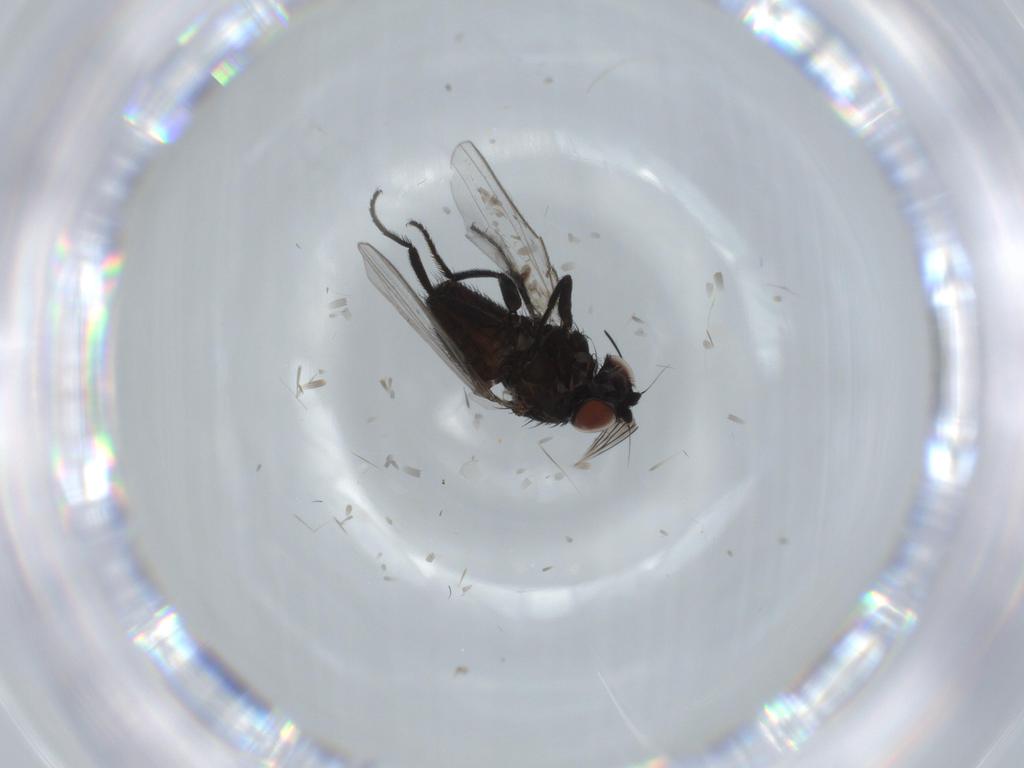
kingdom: Animalia
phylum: Arthropoda
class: Insecta
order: Diptera
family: Milichiidae
